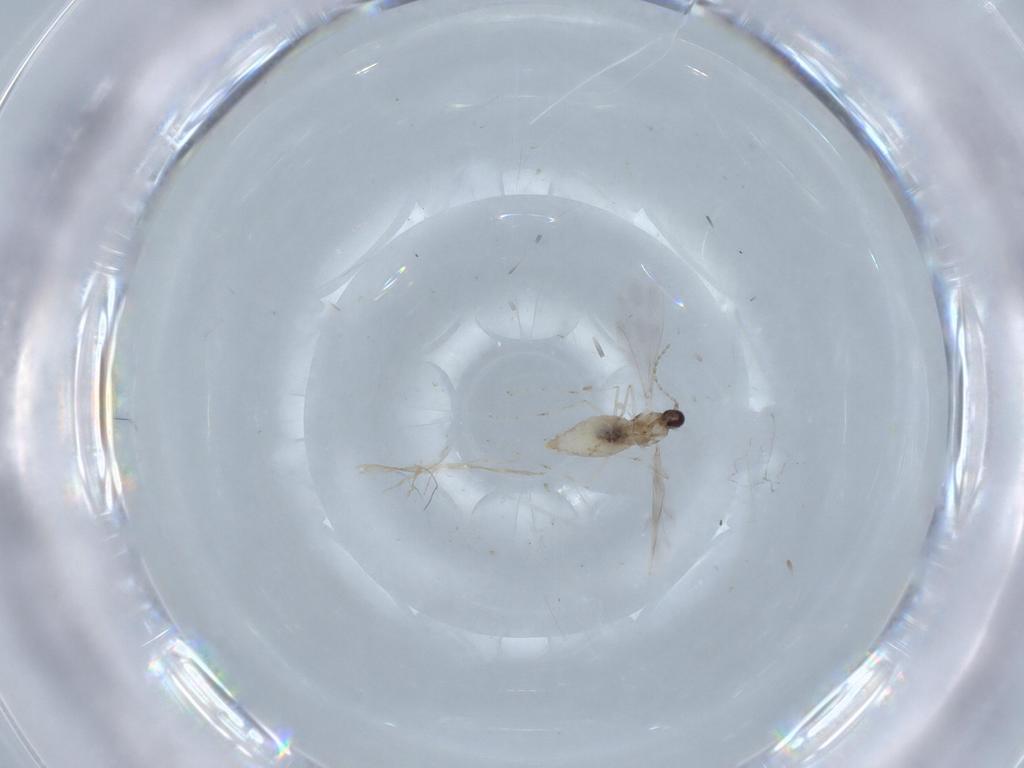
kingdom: Animalia
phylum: Arthropoda
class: Insecta
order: Diptera
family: Cecidomyiidae
